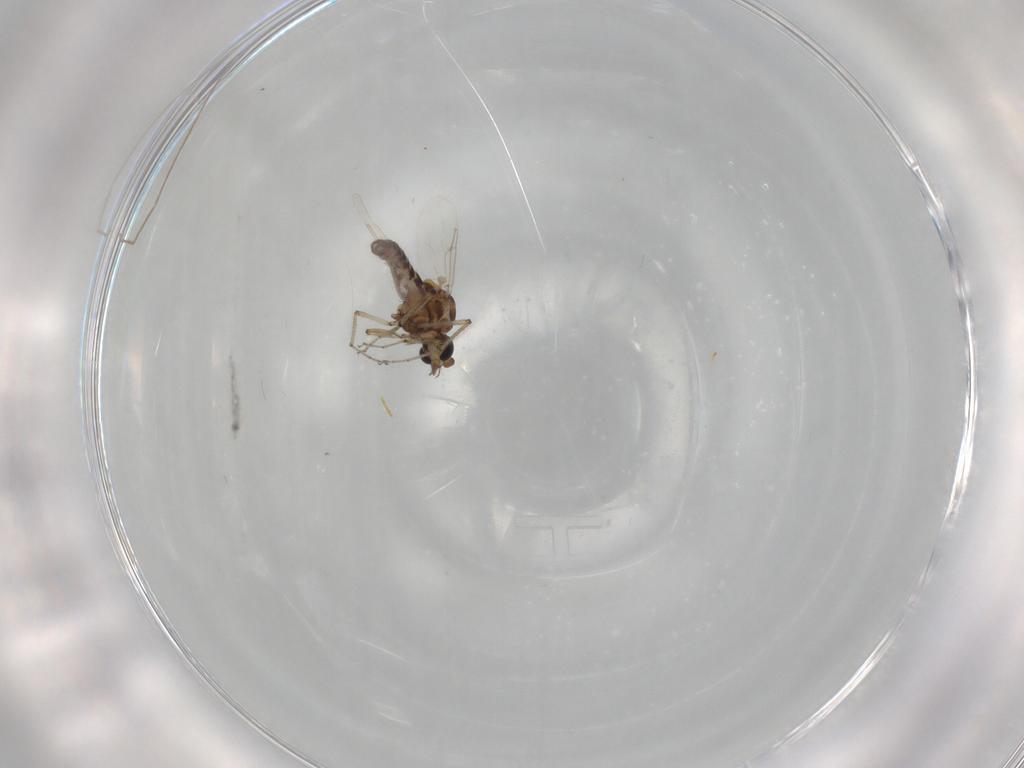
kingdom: Animalia
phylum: Arthropoda
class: Insecta
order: Diptera
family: Ceratopogonidae
